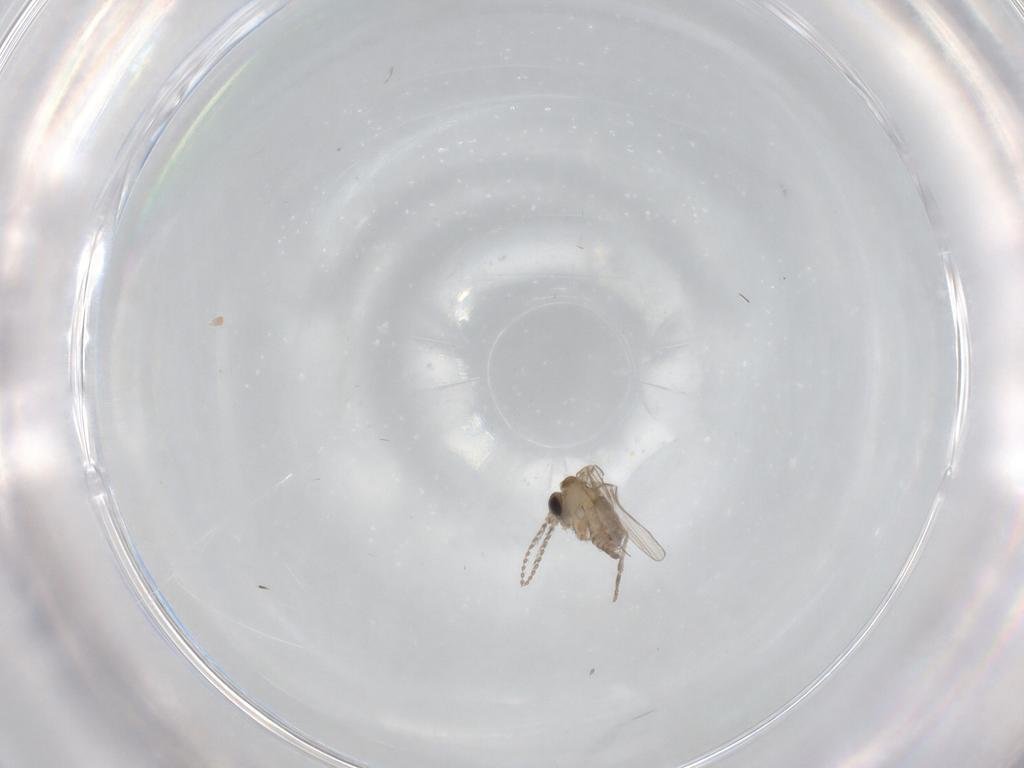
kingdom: Animalia
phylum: Arthropoda
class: Insecta
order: Diptera
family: Psychodidae
